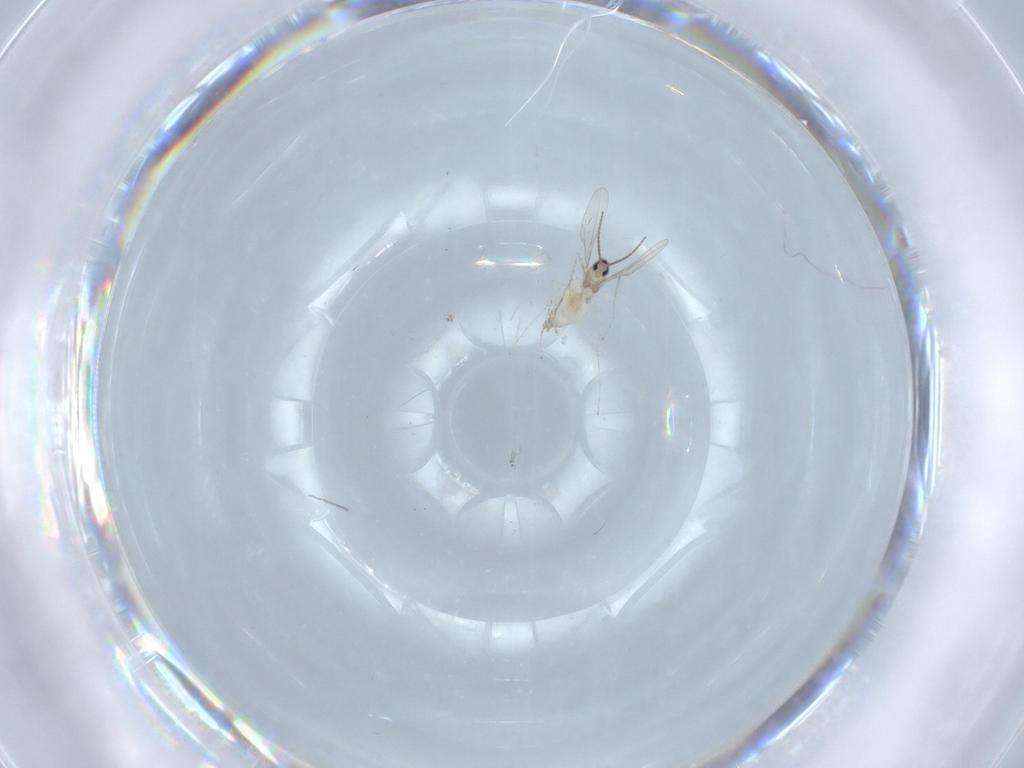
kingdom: Animalia
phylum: Arthropoda
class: Insecta
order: Diptera
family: Cecidomyiidae
